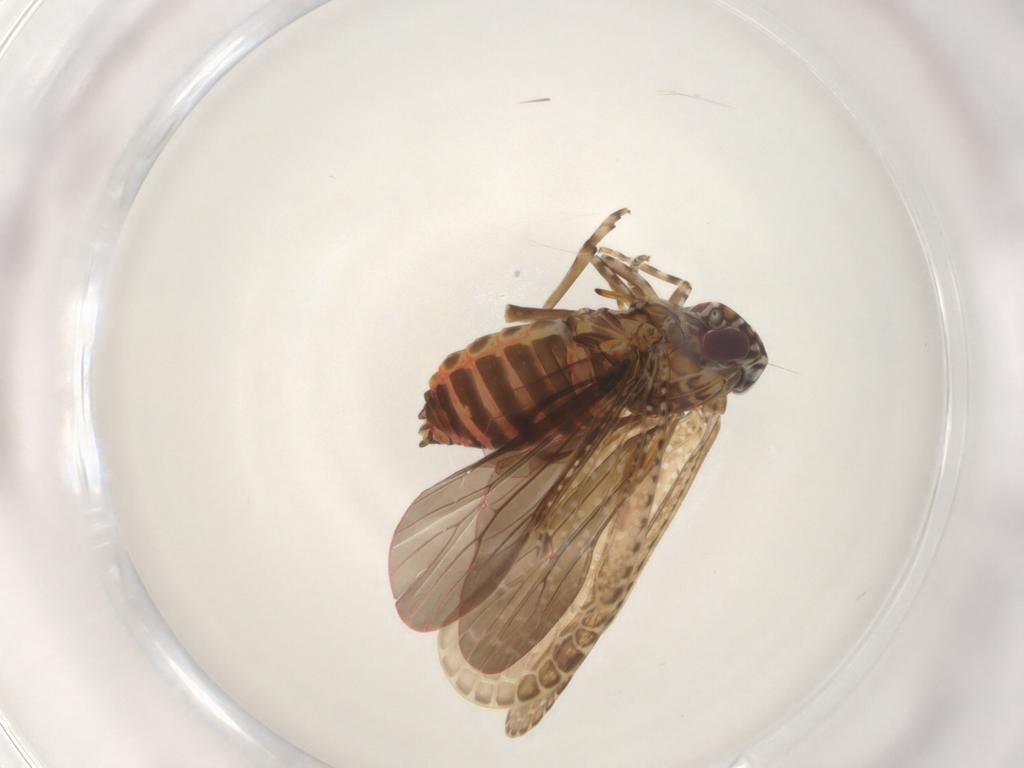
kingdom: Animalia
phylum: Arthropoda
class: Insecta
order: Hemiptera
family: Achilidae
